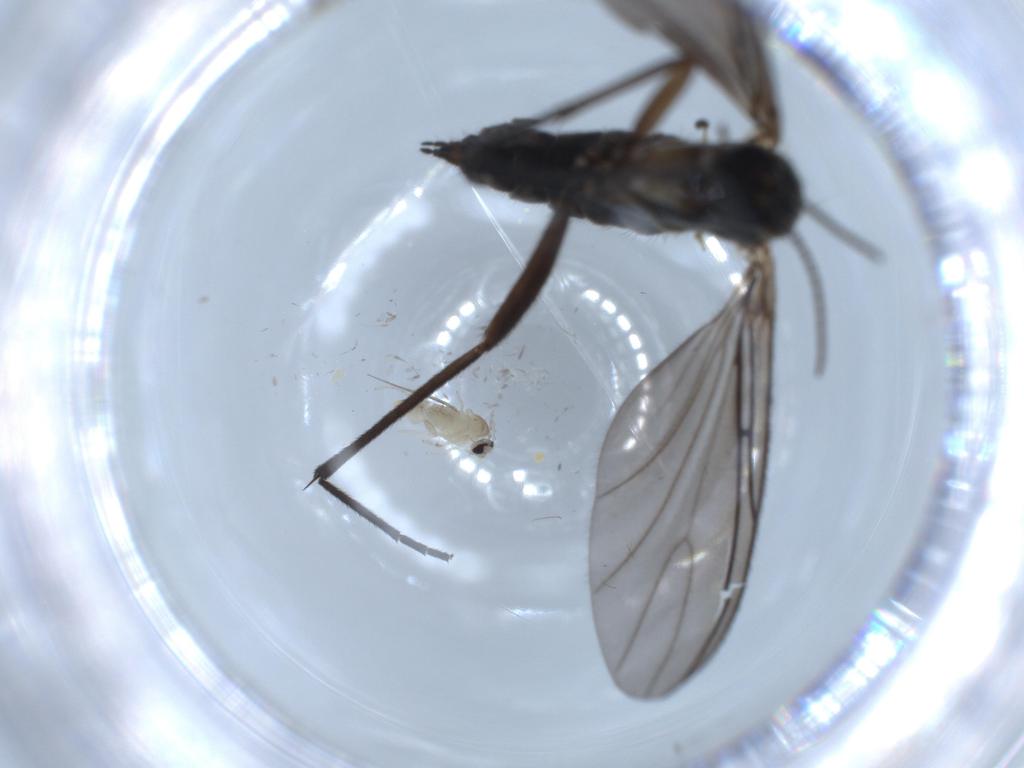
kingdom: Animalia
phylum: Arthropoda
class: Insecta
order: Diptera
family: Sciaridae
